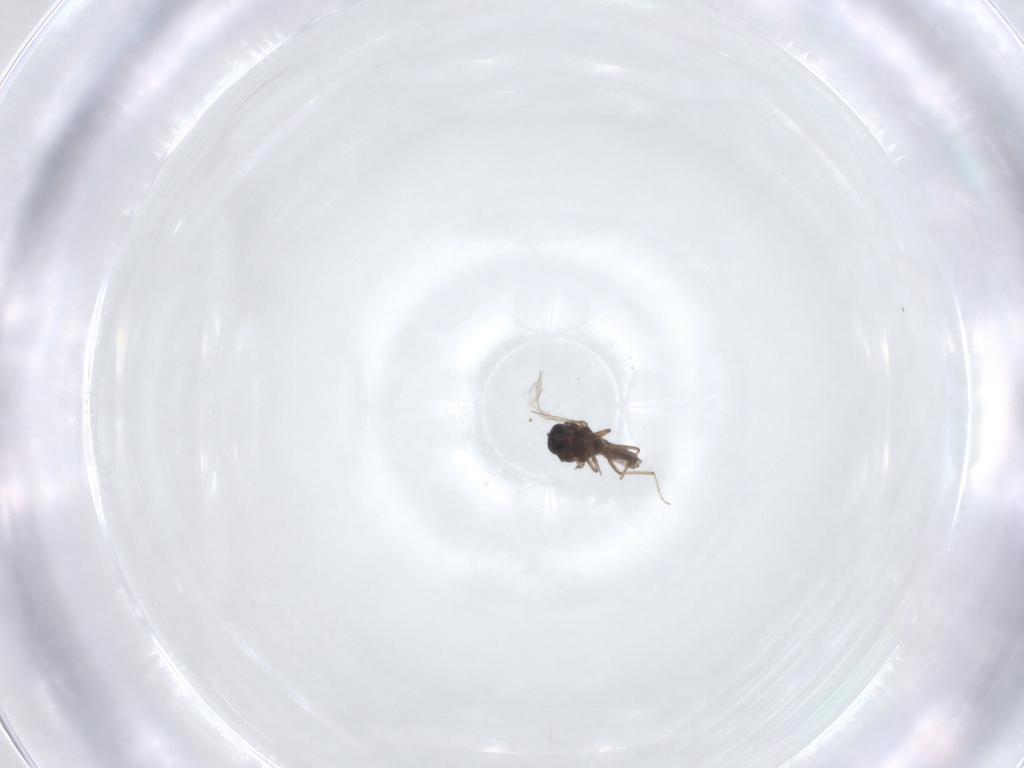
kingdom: Animalia
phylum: Arthropoda
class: Insecta
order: Diptera
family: Ceratopogonidae
